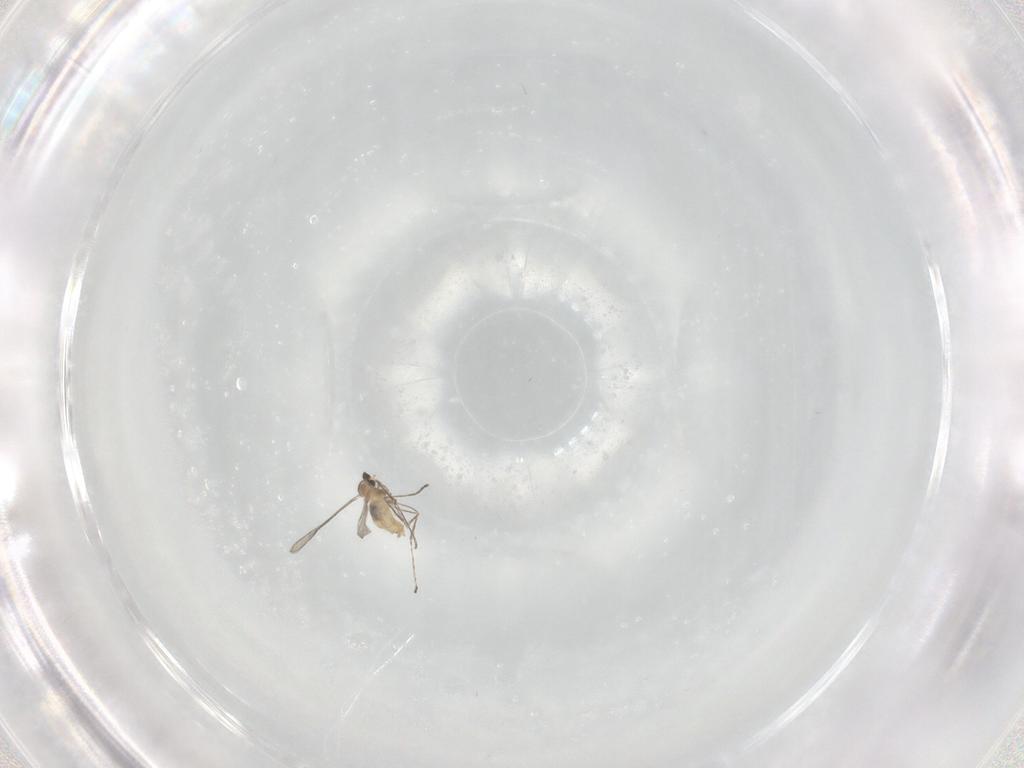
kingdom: Animalia
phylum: Arthropoda
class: Insecta
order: Diptera
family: Cecidomyiidae
